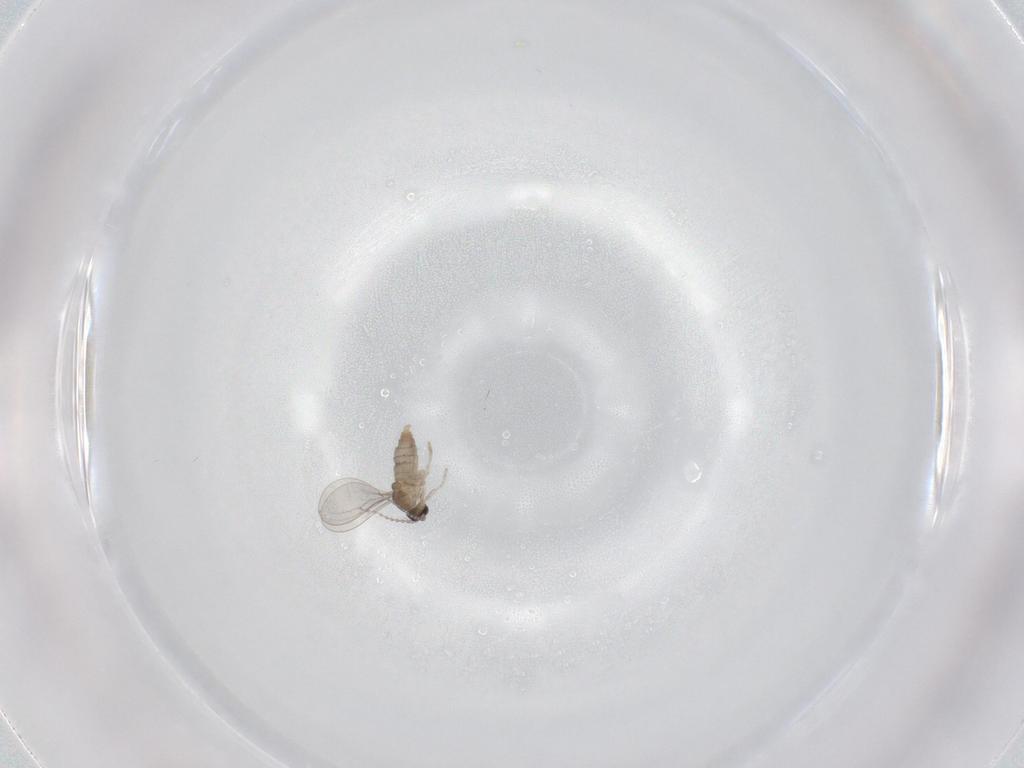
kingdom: Animalia
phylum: Arthropoda
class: Insecta
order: Diptera
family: Cecidomyiidae
